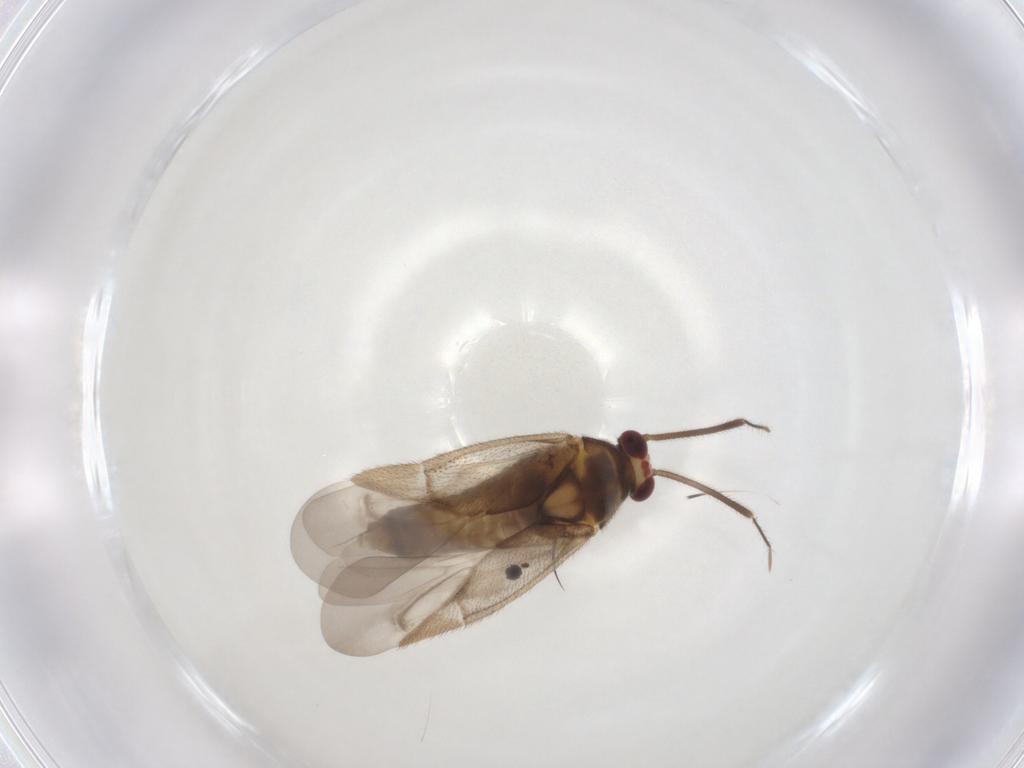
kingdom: Animalia
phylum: Arthropoda
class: Insecta
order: Hemiptera
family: Miridae
